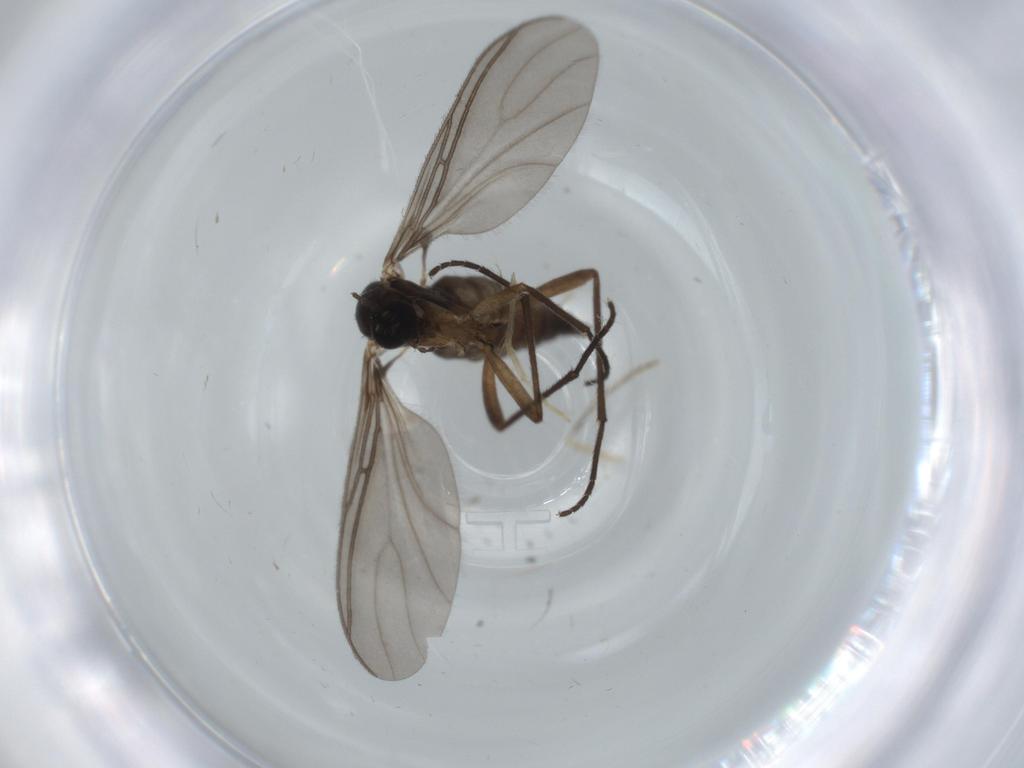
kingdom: Animalia
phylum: Arthropoda
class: Insecta
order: Diptera
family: Sciaridae
